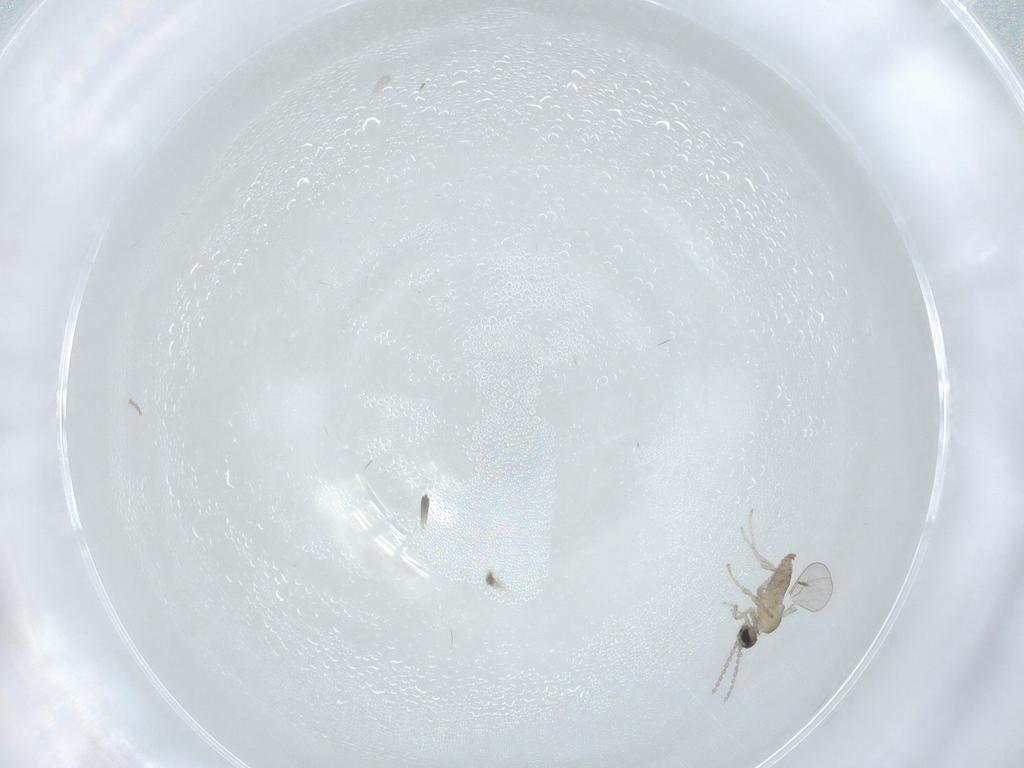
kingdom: Animalia
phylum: Arthropoda
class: Insecta
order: Diptera
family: Cecidomyiidae
